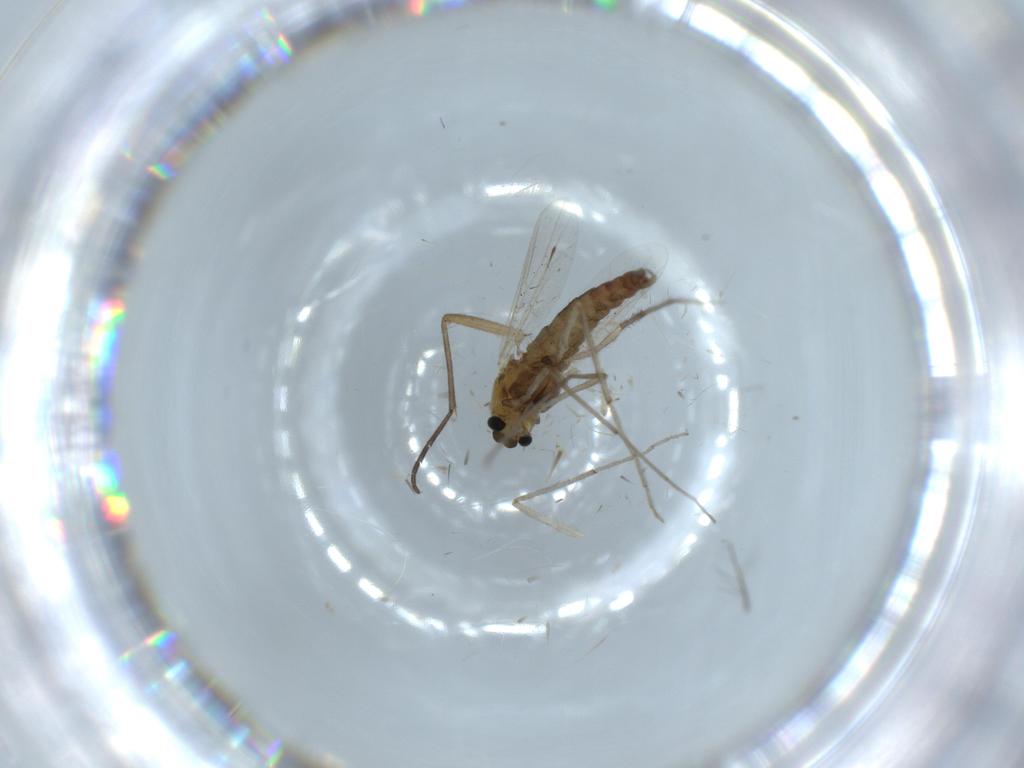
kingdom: Animalia
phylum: Arthropoda
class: Insecta
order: Diptera
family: Chironomidae
